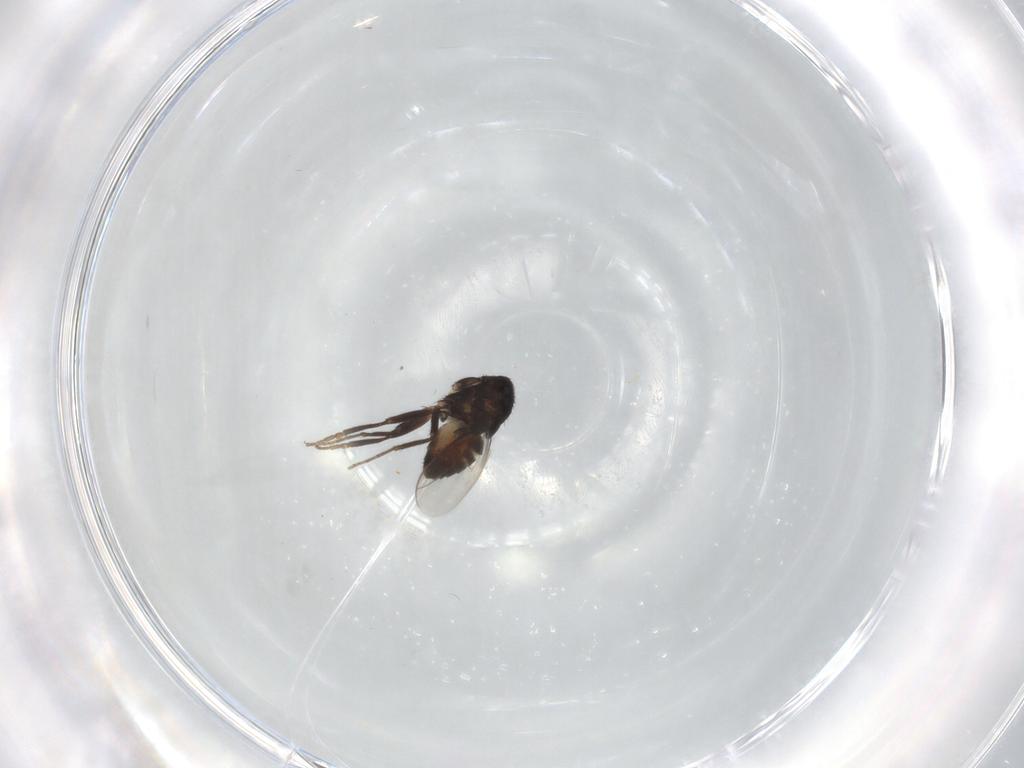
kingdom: Animalia
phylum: Arthropoda
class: Insecta
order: Diptera
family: Sphaeroceridae
